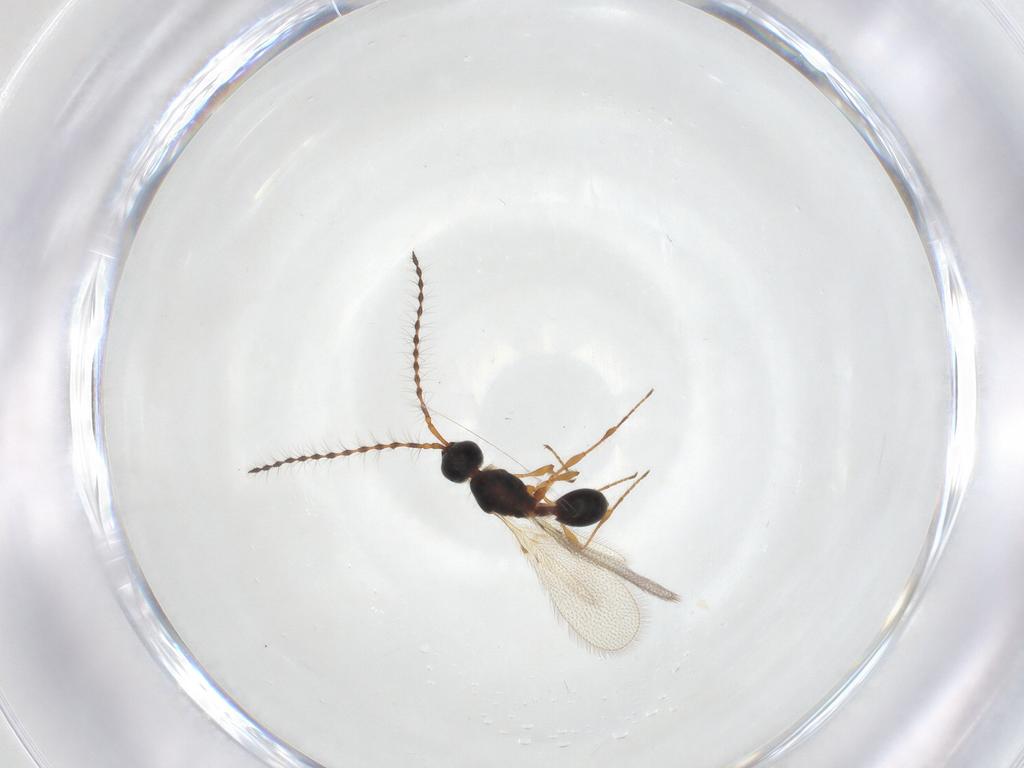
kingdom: Animalia
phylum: Arthropoda
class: Insecta
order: Hymenoptera
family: Diapriidae
